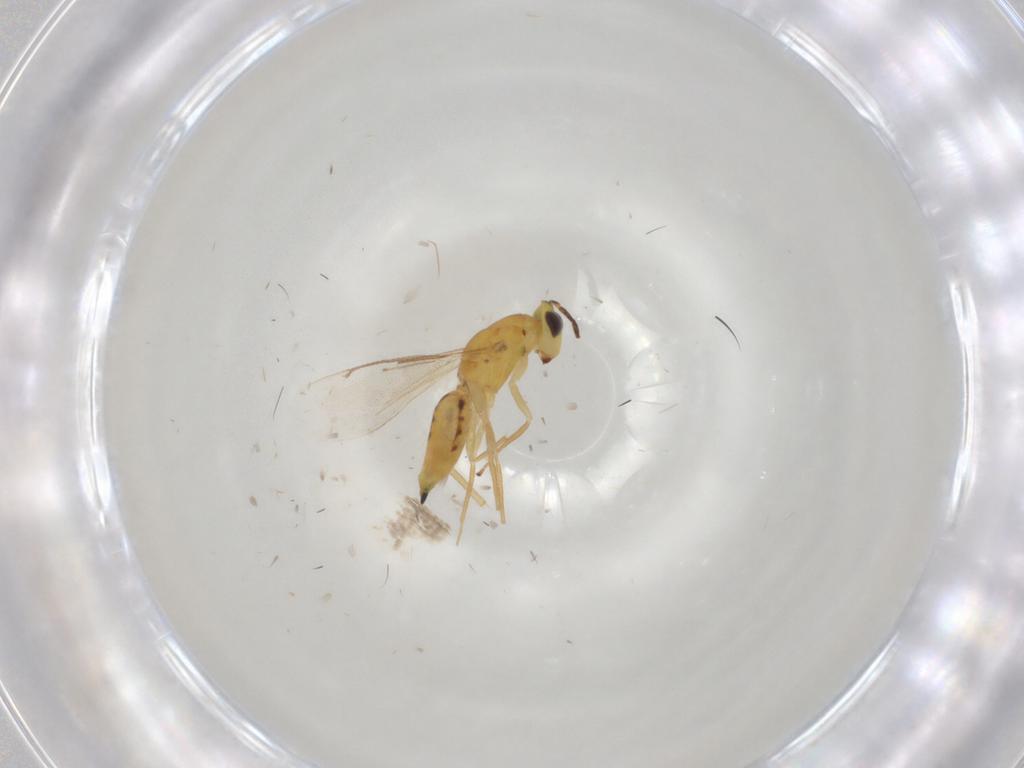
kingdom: Animalia
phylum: Arthropoda
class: Insecta
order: Hymenoptera
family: Eulophidae
